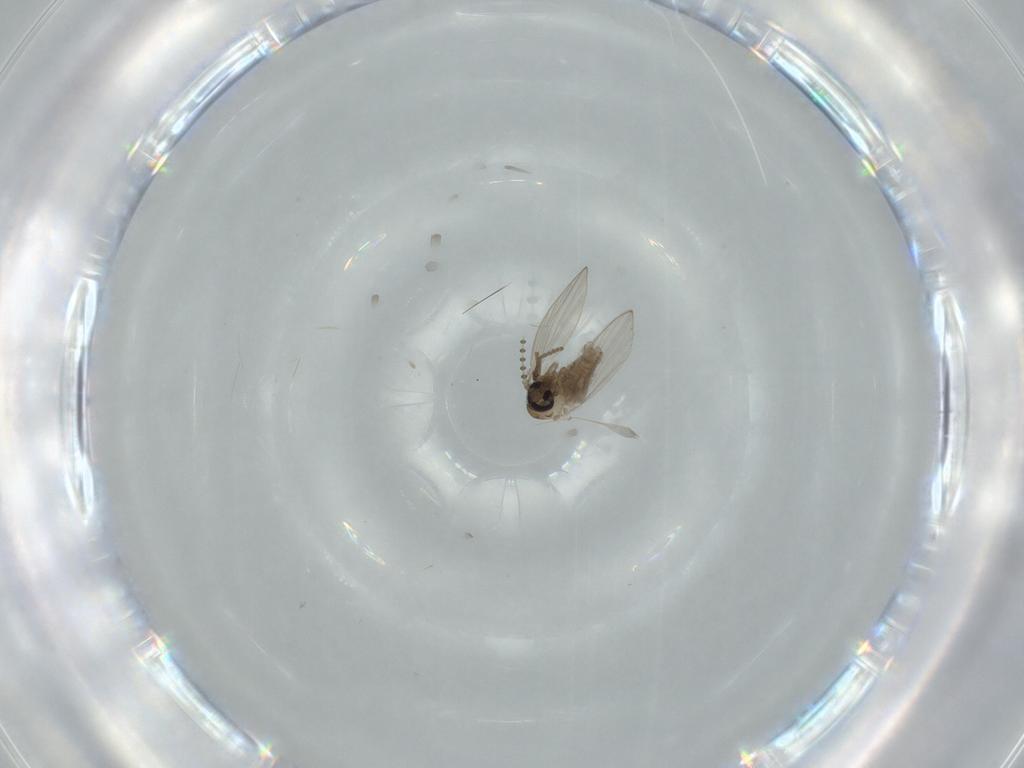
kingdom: Animalia
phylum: Arthropoda
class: Insecta
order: Diptera
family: Psychodidae
